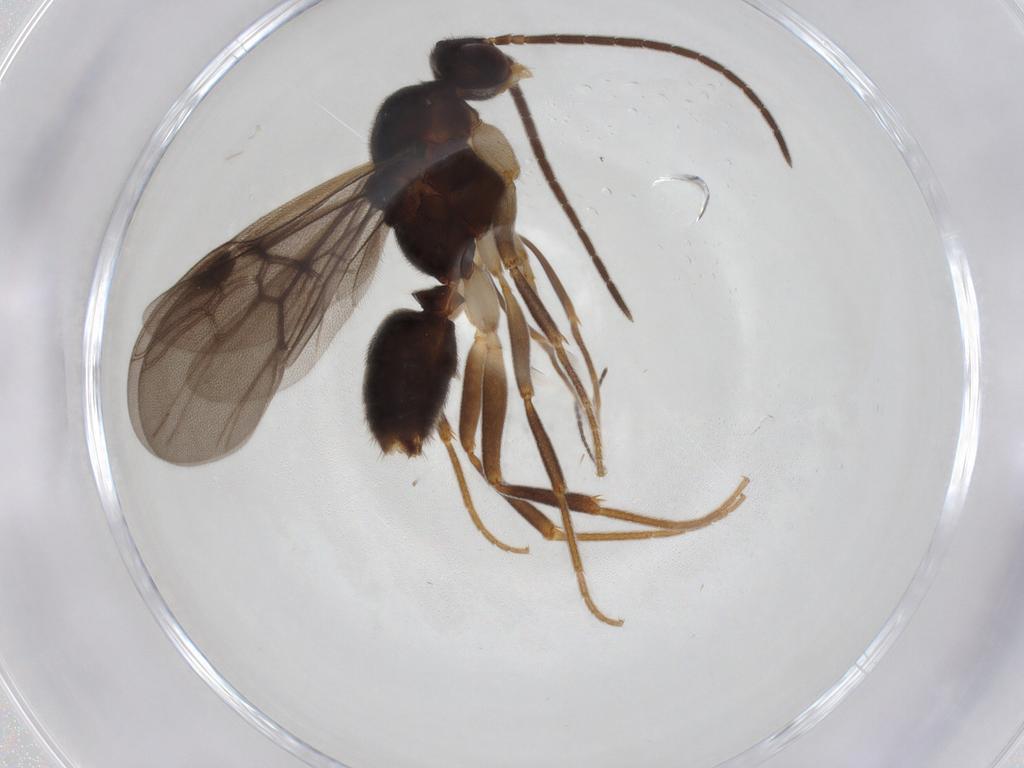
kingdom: Animalia
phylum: Arthropoda
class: Insecta
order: Hymenoptera
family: Formicidae
